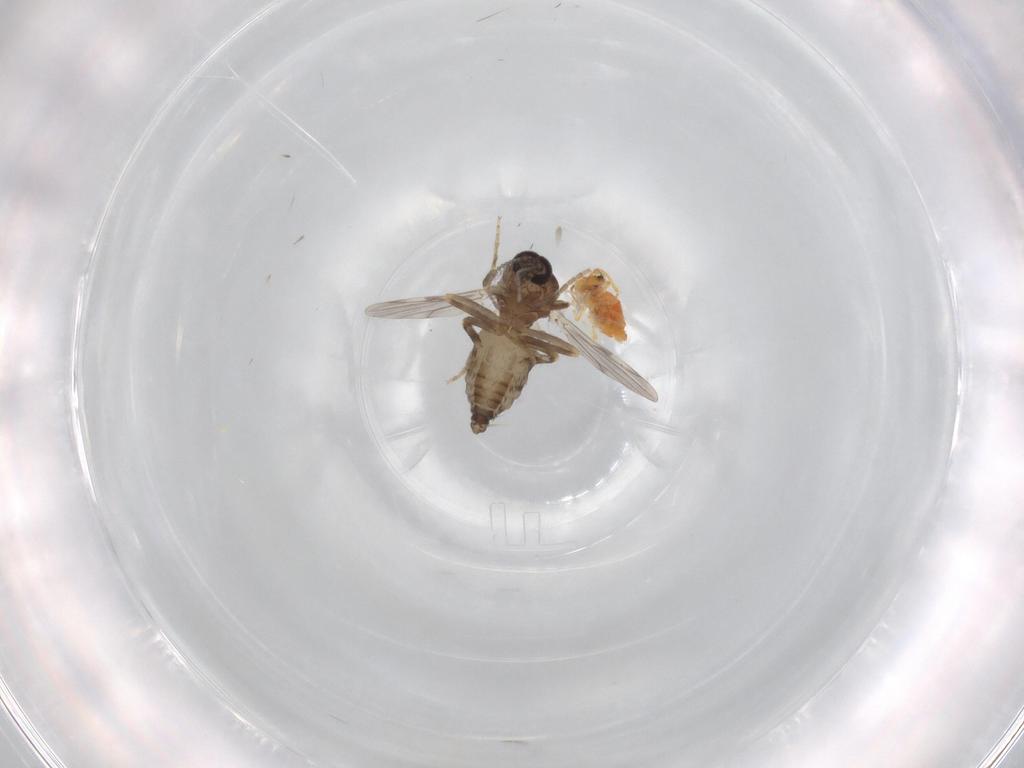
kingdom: Animalia
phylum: Arthropoda
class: Insecta
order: Diptera
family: Ceratopogonidae
